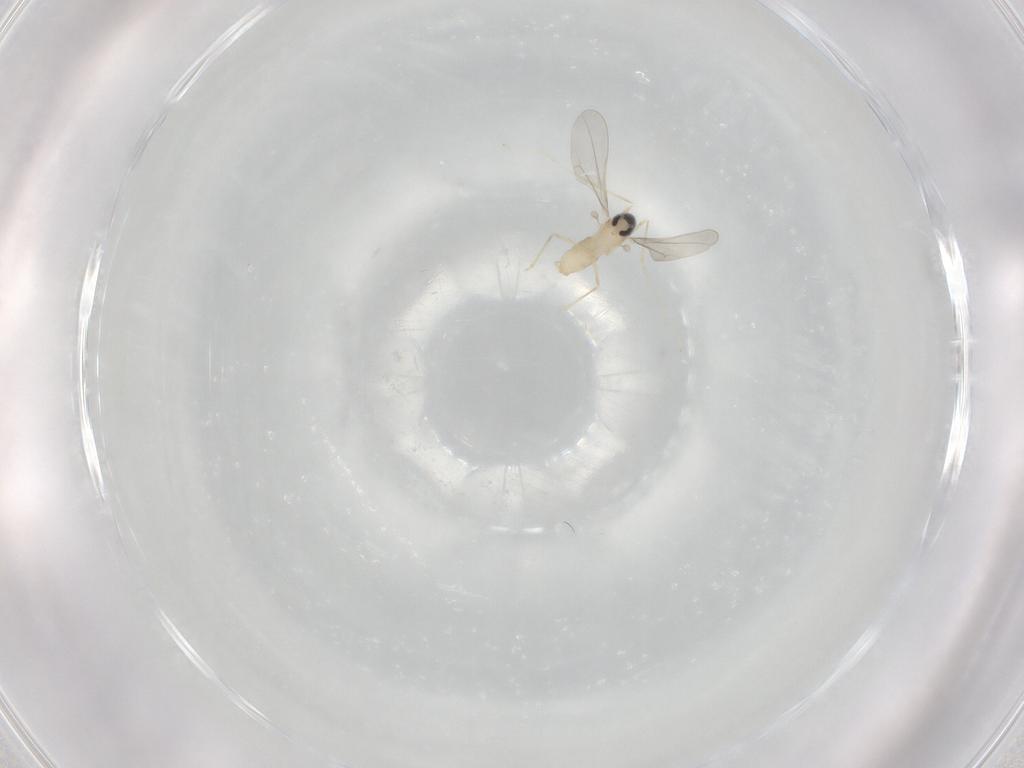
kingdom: Animalia
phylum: Arthropoda
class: Insecta
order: Diptera
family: Cecidomyiidae
